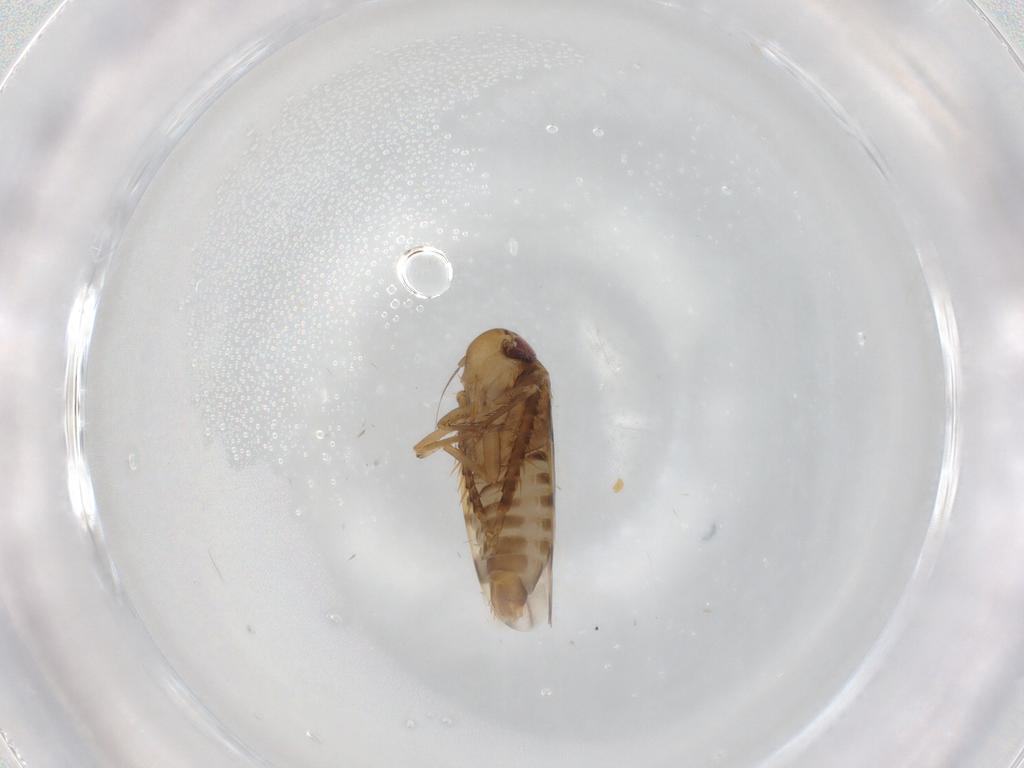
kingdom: Animalia
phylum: Arthropoda
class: Insecta
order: Hemiptera
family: Cicadellidae
